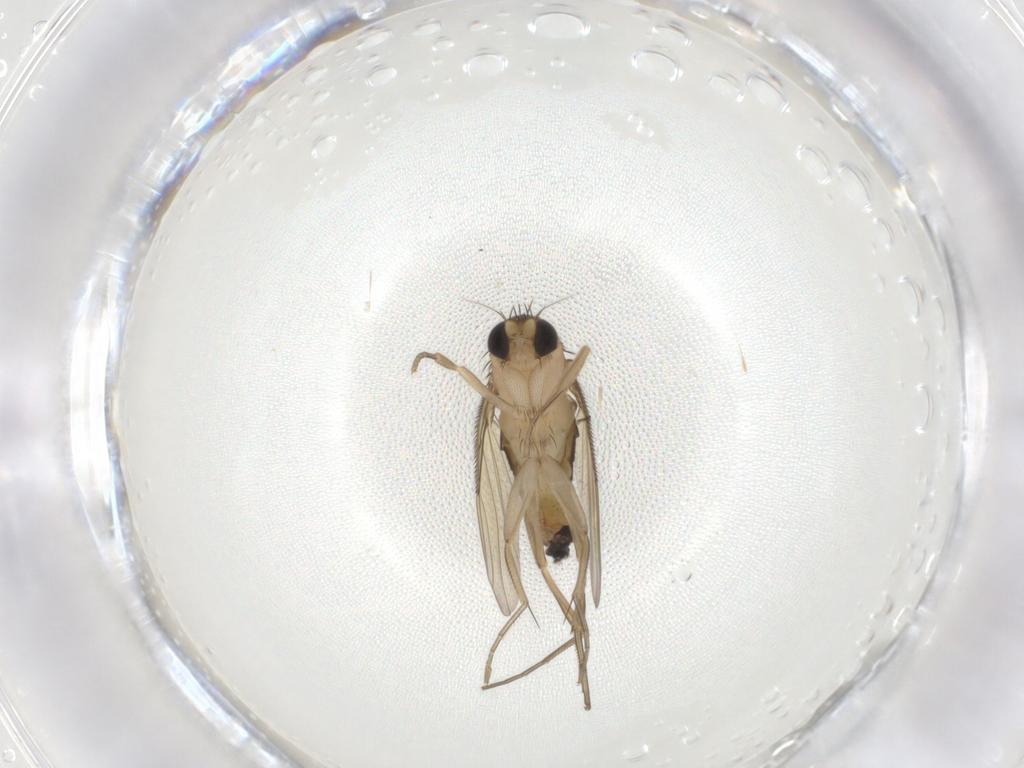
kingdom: Animalia
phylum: Arthropoda
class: Insecta
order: Diptera
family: Phoridae
